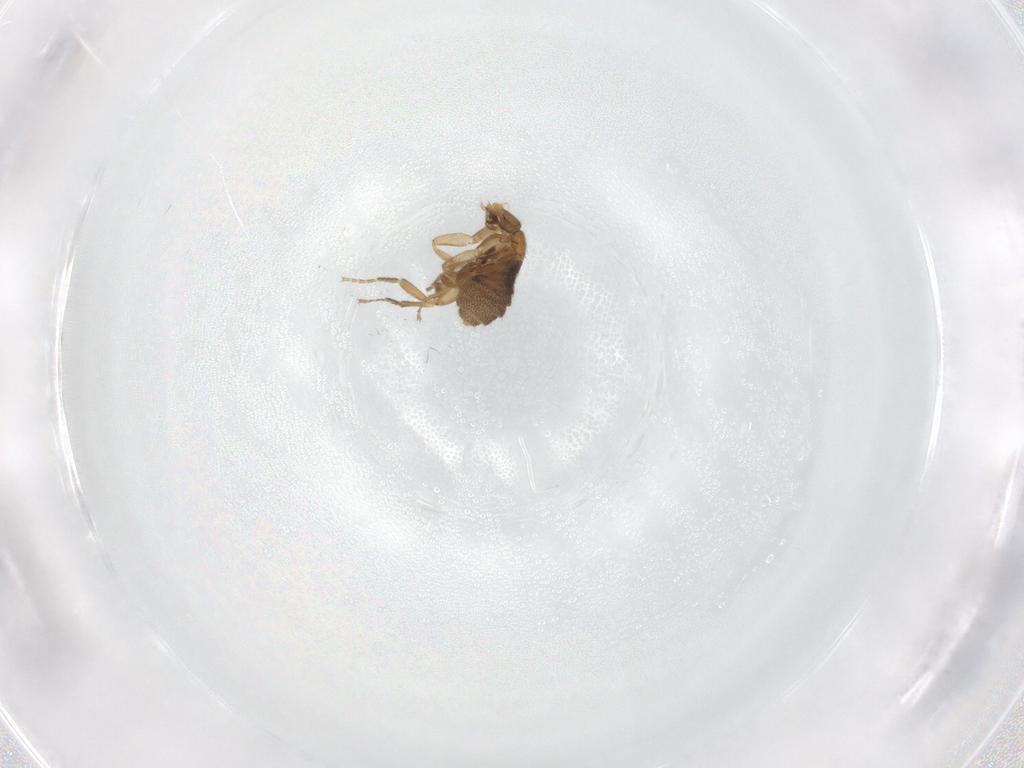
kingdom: Animalia
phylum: Arthropoda
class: Insecta
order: Diptera
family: Phoridae
